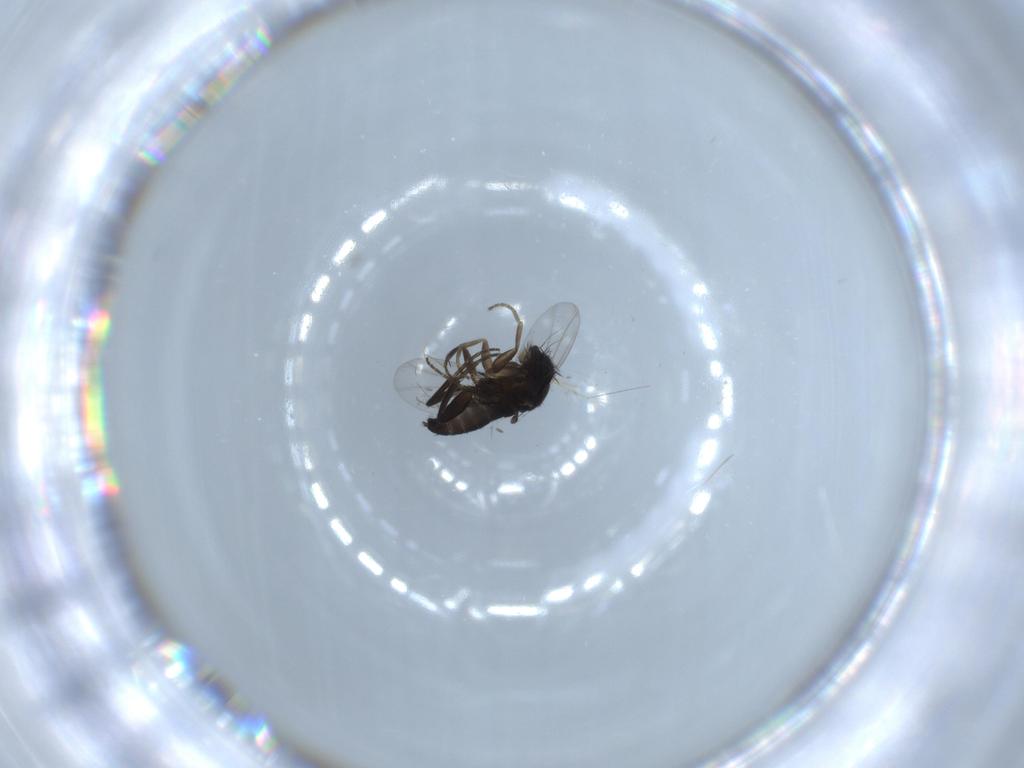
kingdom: Animalia
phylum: Arthropoda
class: Insecta
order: Diptera
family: Phoridae
